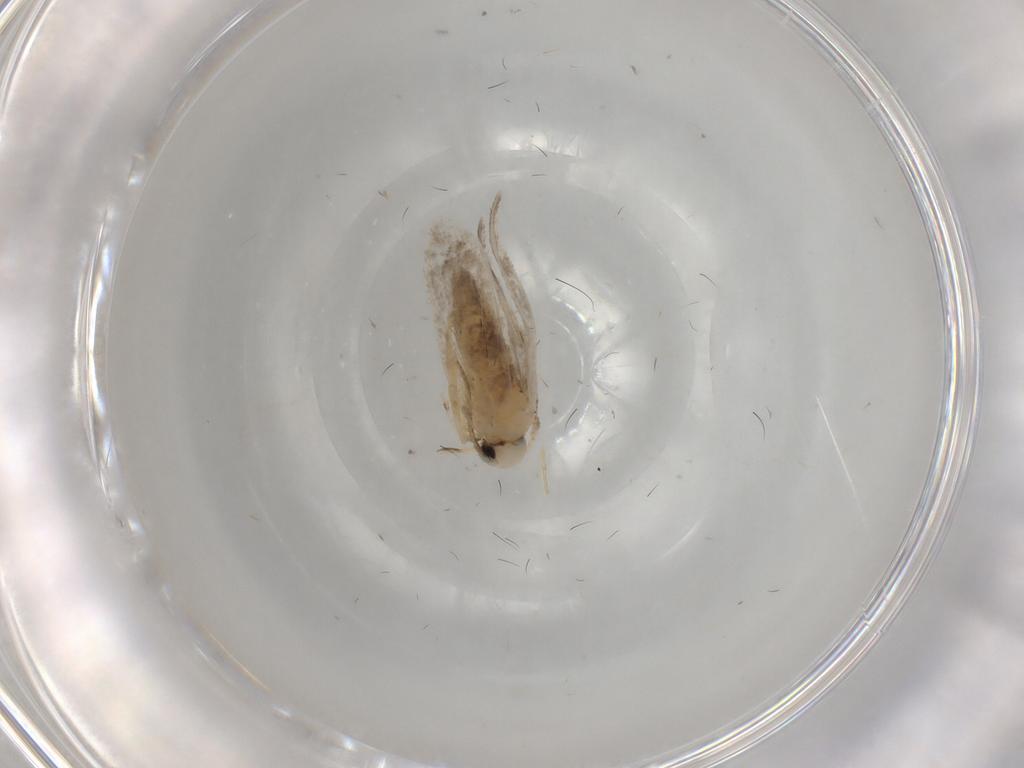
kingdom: Animalia
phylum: Arthropoda
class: Insecta
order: Lepidoptera
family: Psychidae
